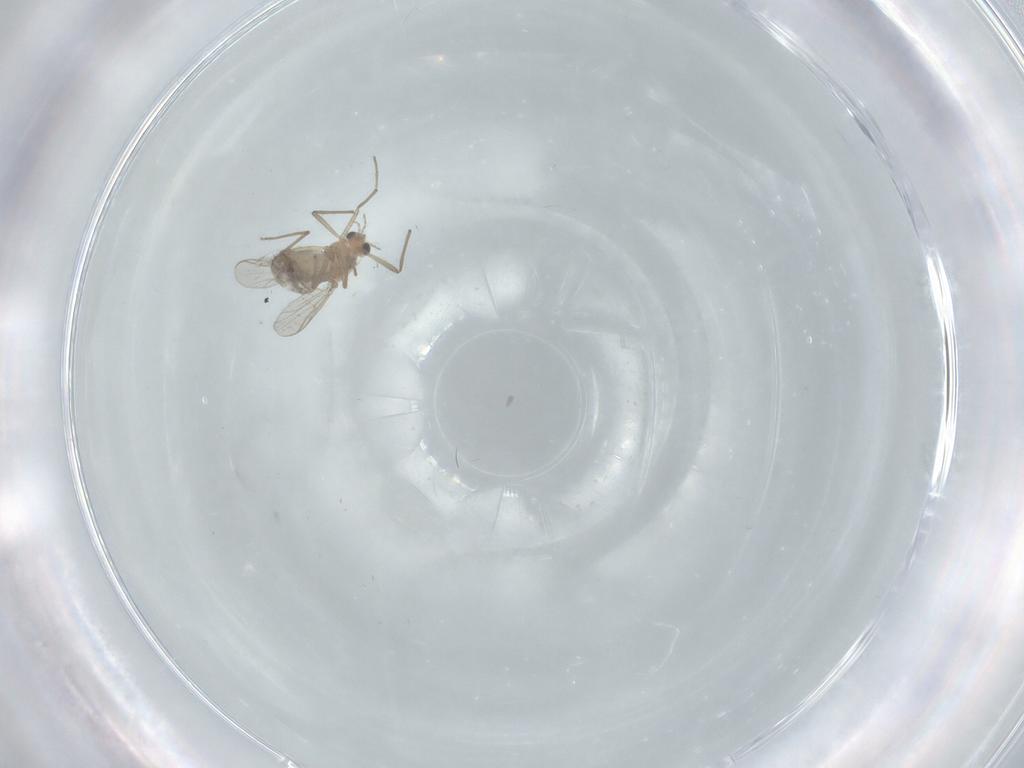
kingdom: Animalia
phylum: Arthropoda
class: Insecta
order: Diptera
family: Chironomidae
